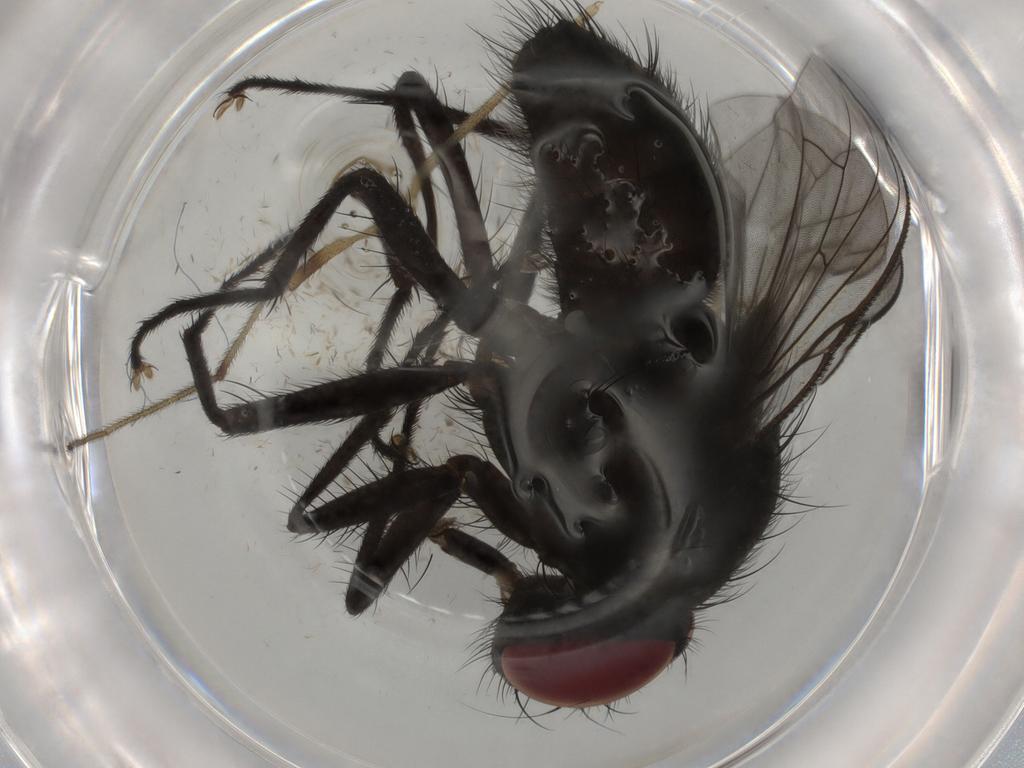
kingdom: Animalia
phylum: Arthropoda
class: Insecta
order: Diptera
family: Muscidae
